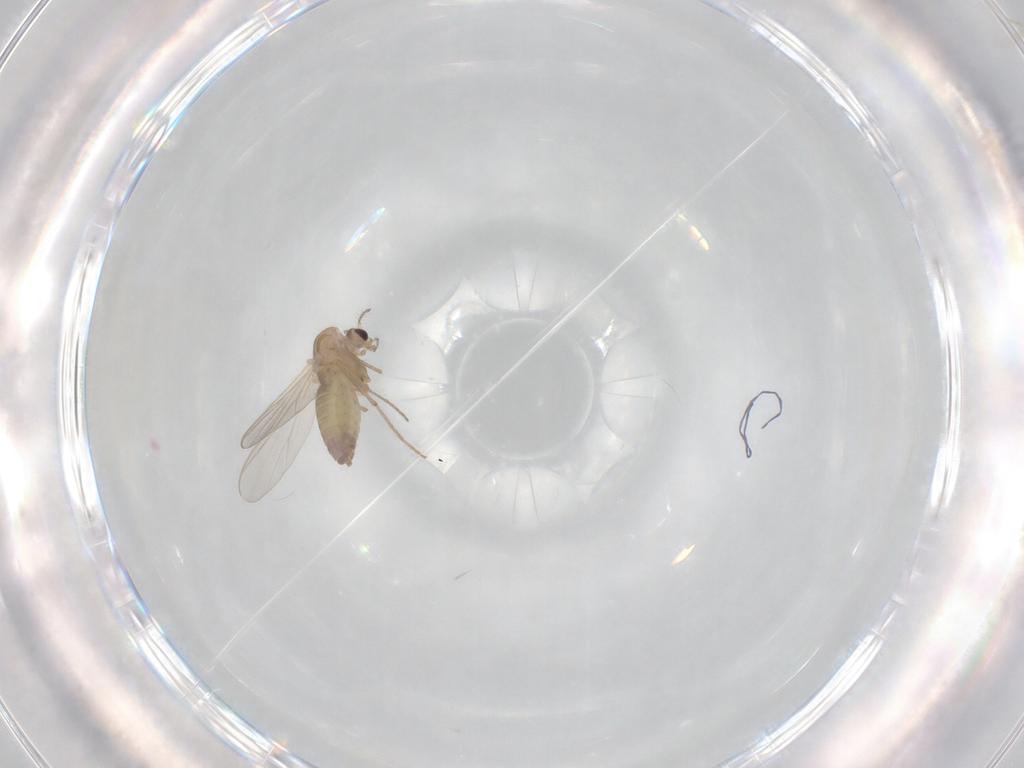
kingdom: Animalia
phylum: Arthropoda
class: Insecta
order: Diptera
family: Chironomidae
